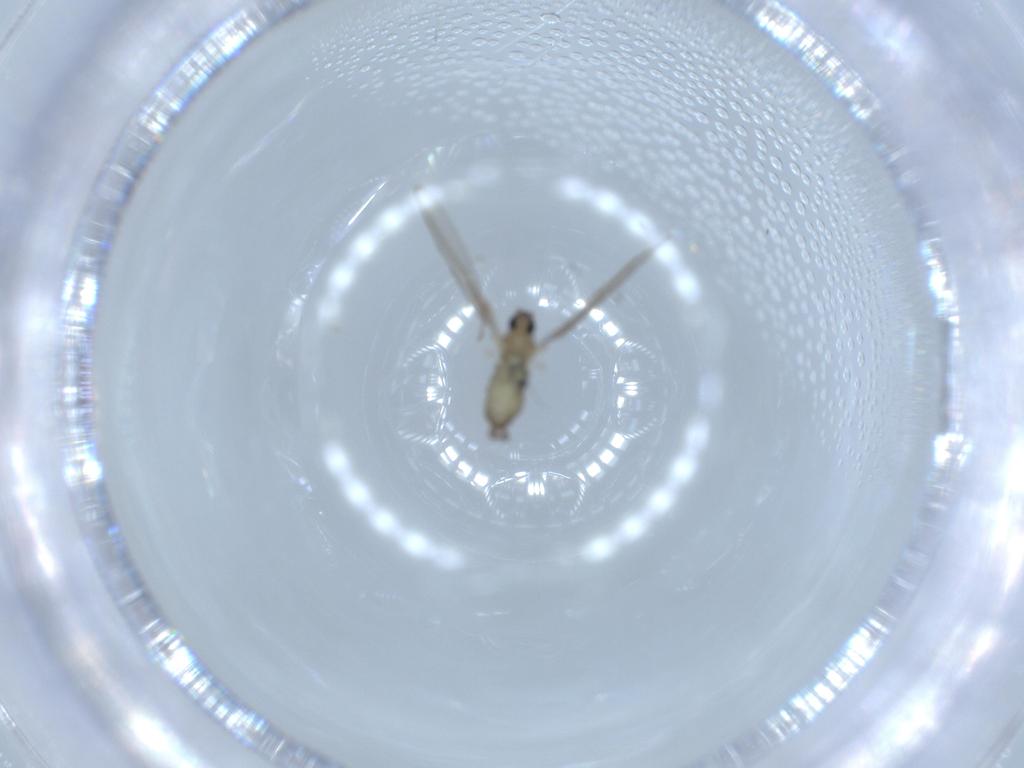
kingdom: Animalia
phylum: Arthropoda
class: Insecta
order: Diptera
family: Cecidomyiidae
